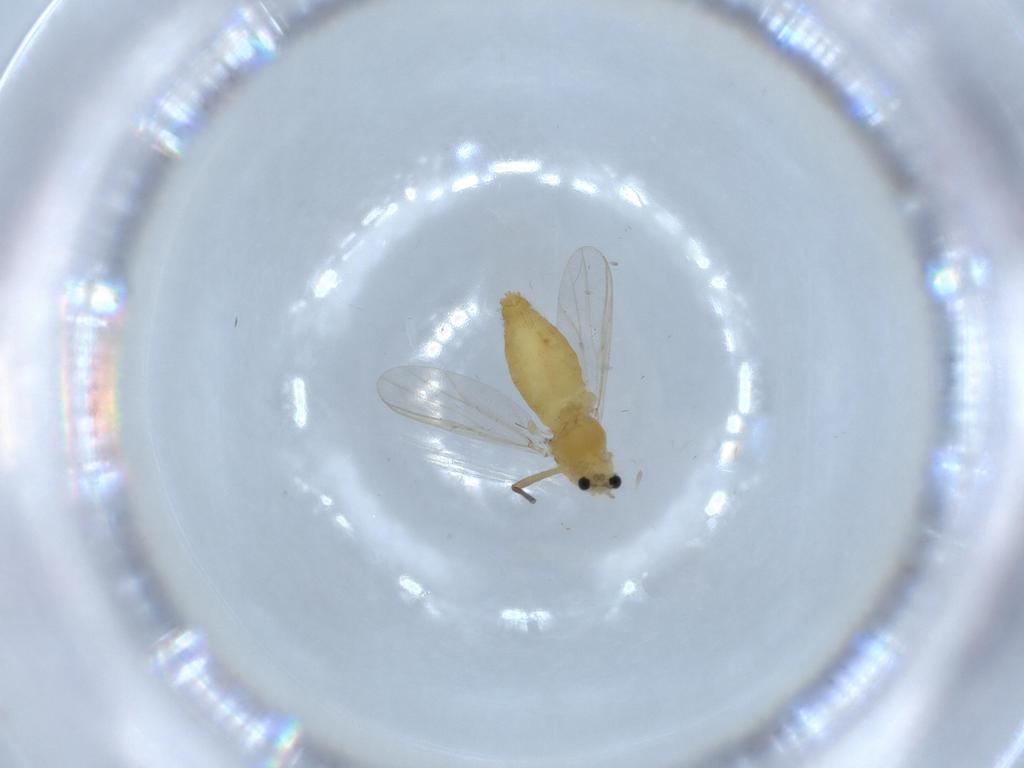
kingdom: Animalia
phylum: Arthropoda
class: Insecta
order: Diptera
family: Chironomidae
